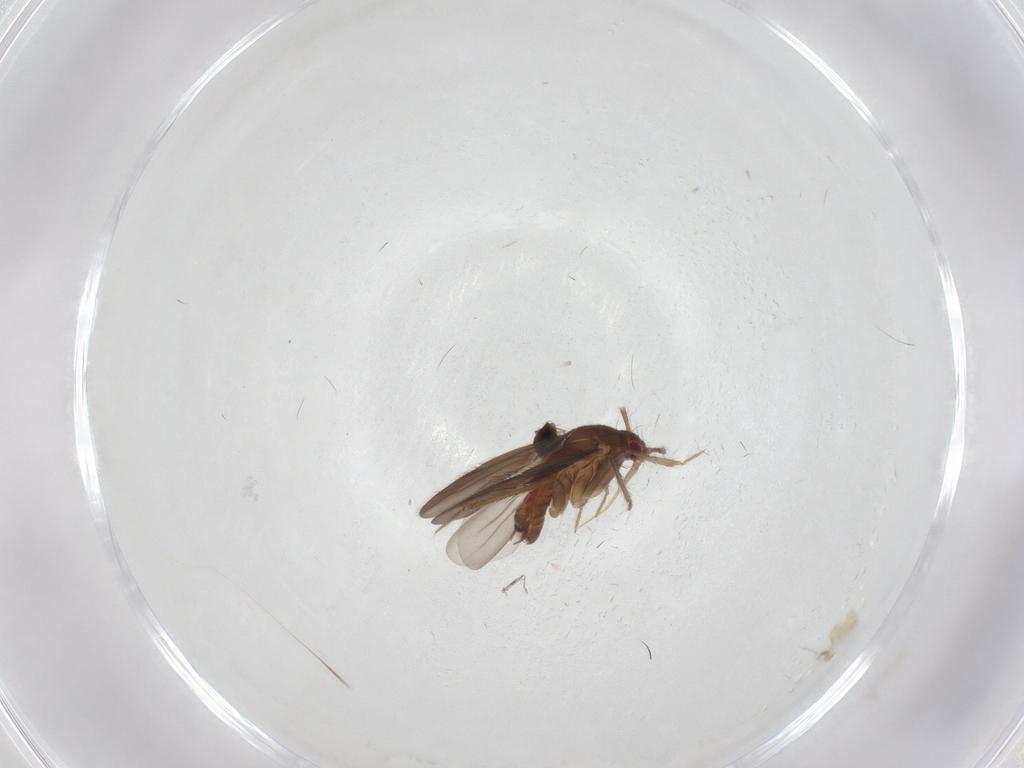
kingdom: Animalia
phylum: Arthropoda
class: Insecta
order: Hemiptera
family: Ceratocombidae
